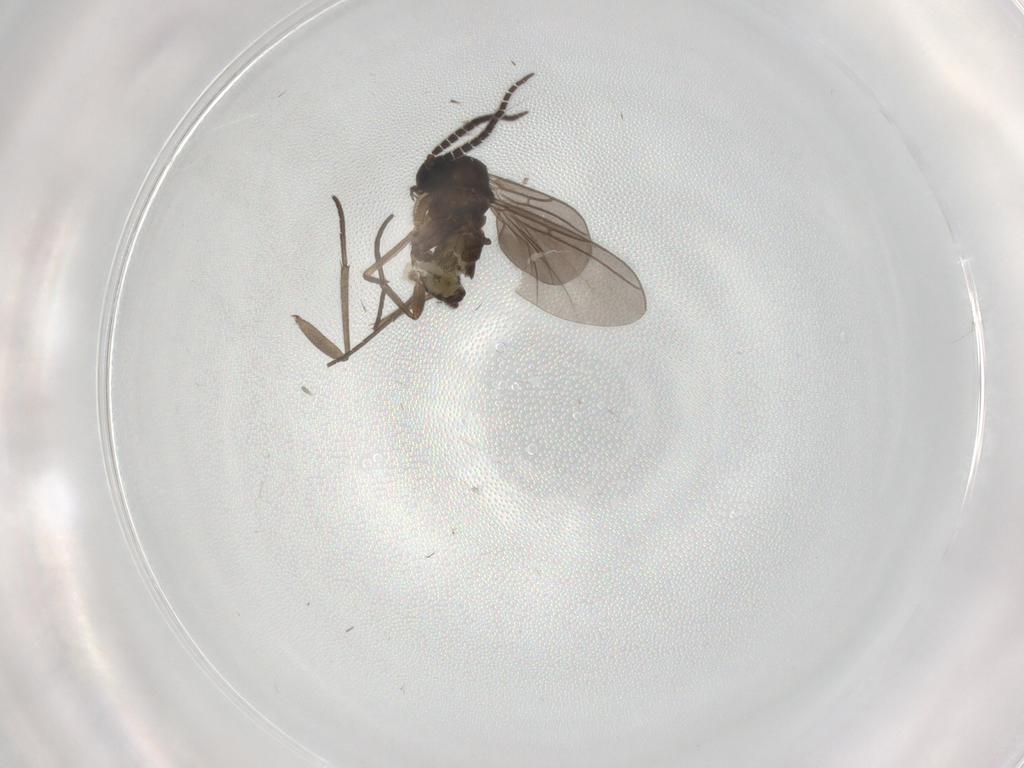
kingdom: Animalia
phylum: Arthropoda
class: Insecta
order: Diptera
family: Sciaridae
